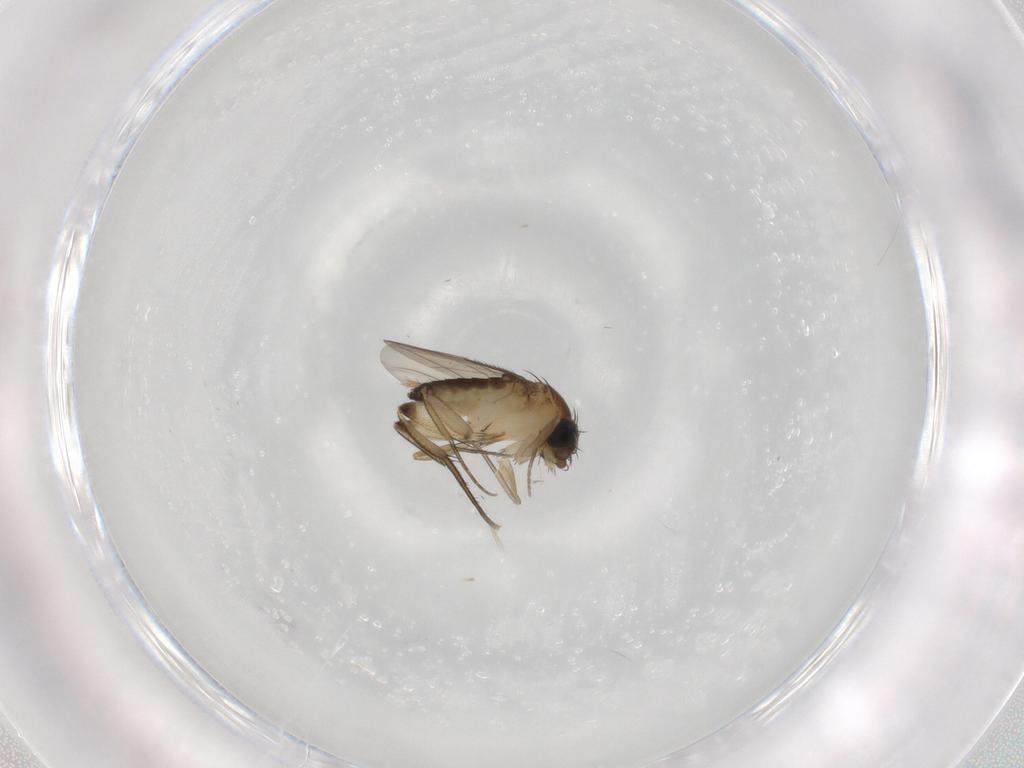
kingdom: Animalia
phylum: Arthropoda
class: Insecta
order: Diptera
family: Phoridae
